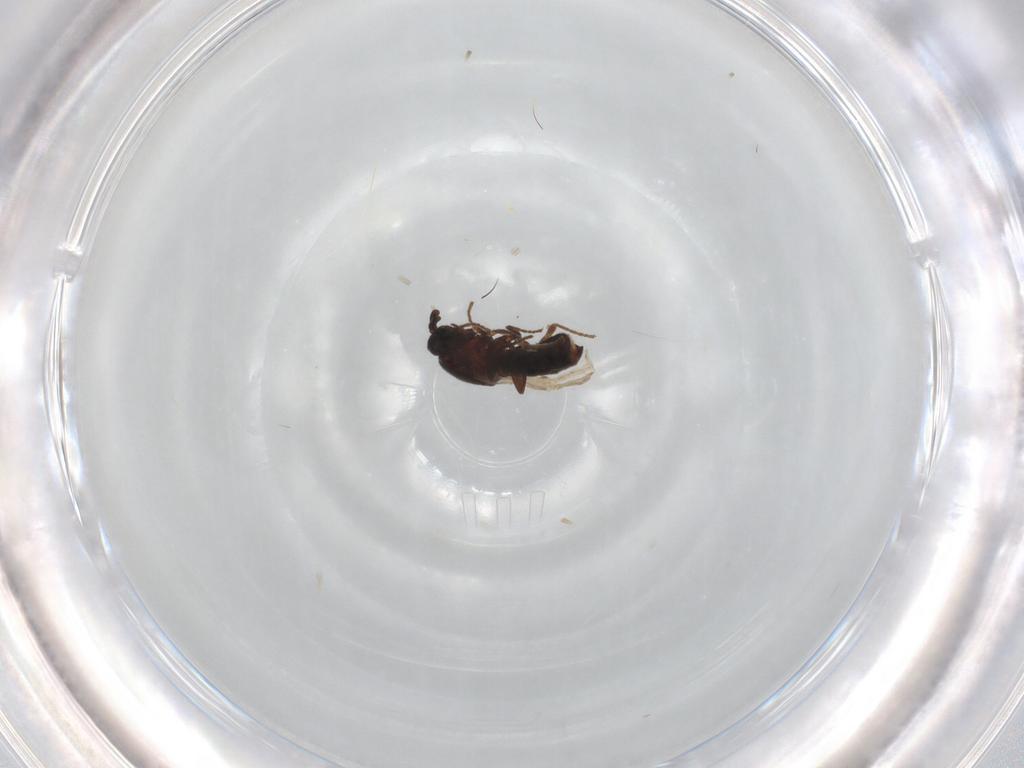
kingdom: Animalia
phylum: Arthropoda
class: Insecta
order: Diptera
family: Scatopsidae
